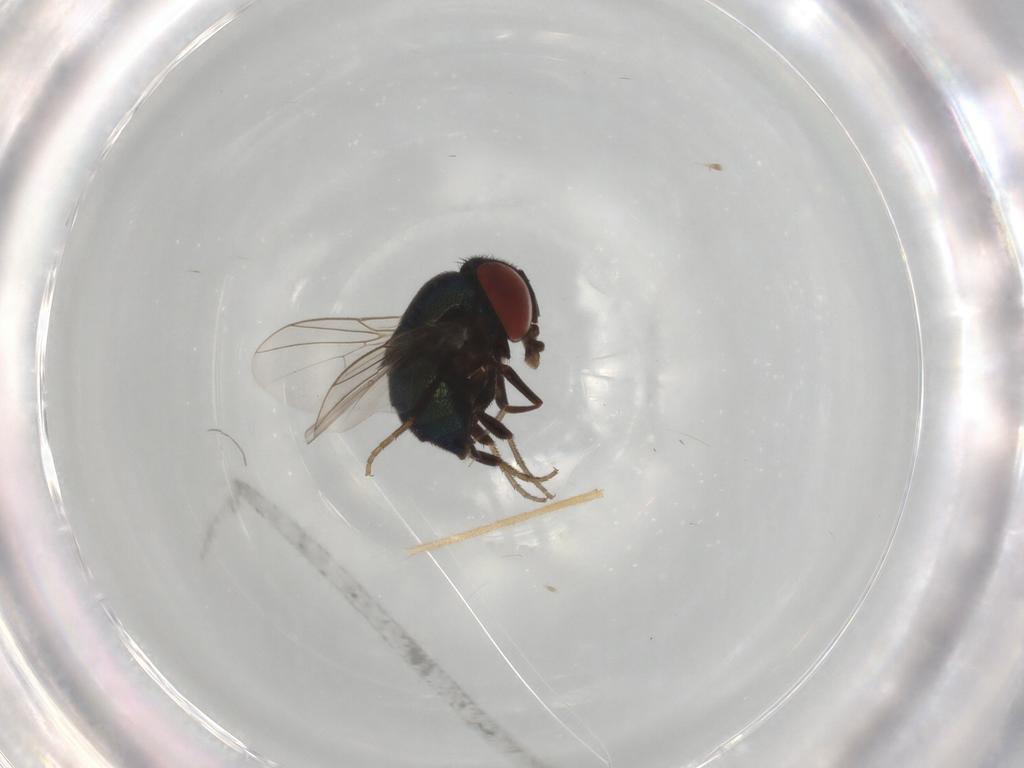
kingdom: Animalia
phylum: Arthropoda
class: Insecta
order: Diptera
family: Cryptochetidae
